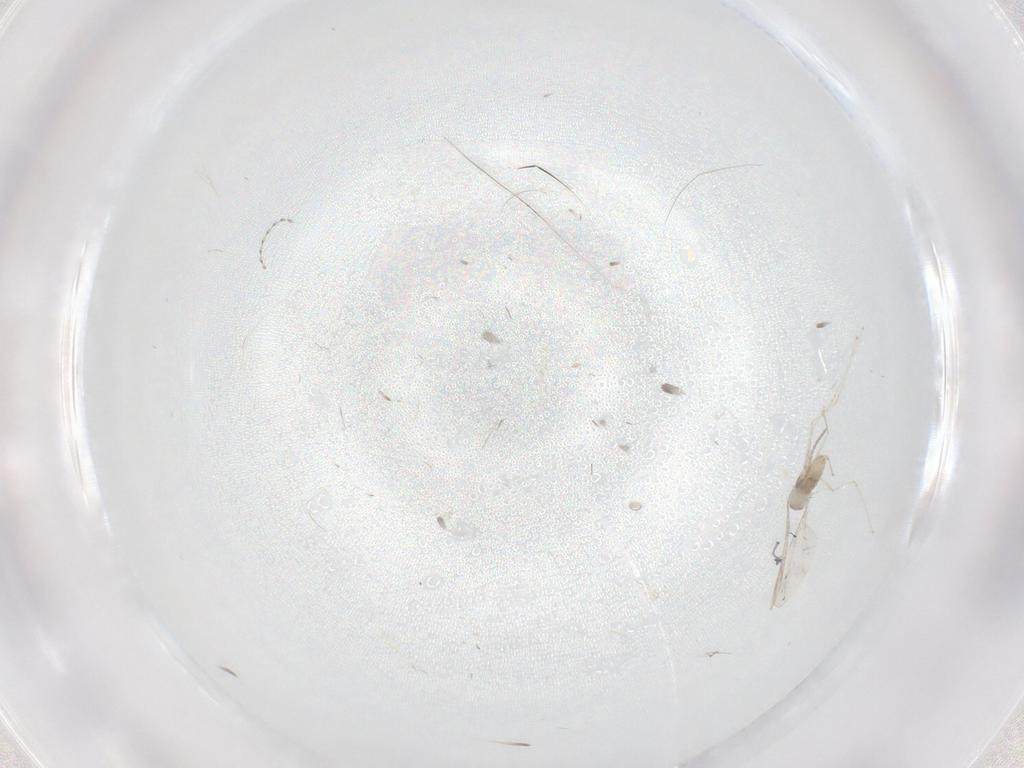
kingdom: Animalia
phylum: Arthropoda
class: Insecta
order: Diptera
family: Cecidomyiidae
